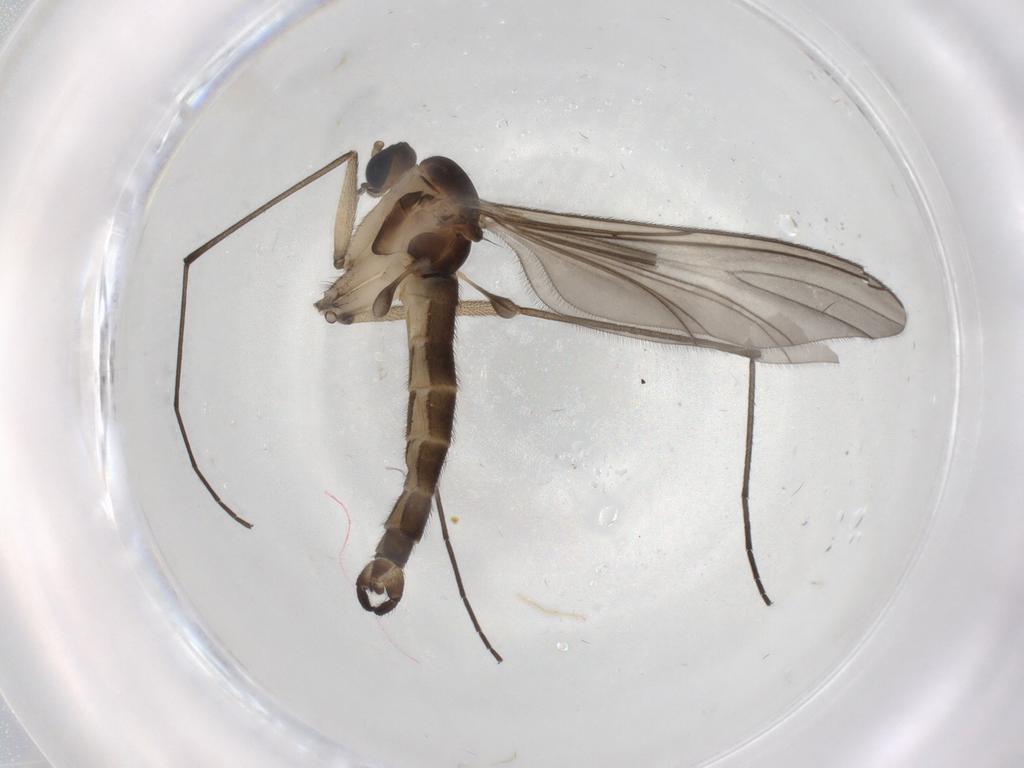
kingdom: Animalia
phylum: Arthropoda
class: Insecta
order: Diptera
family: Sciaridae
